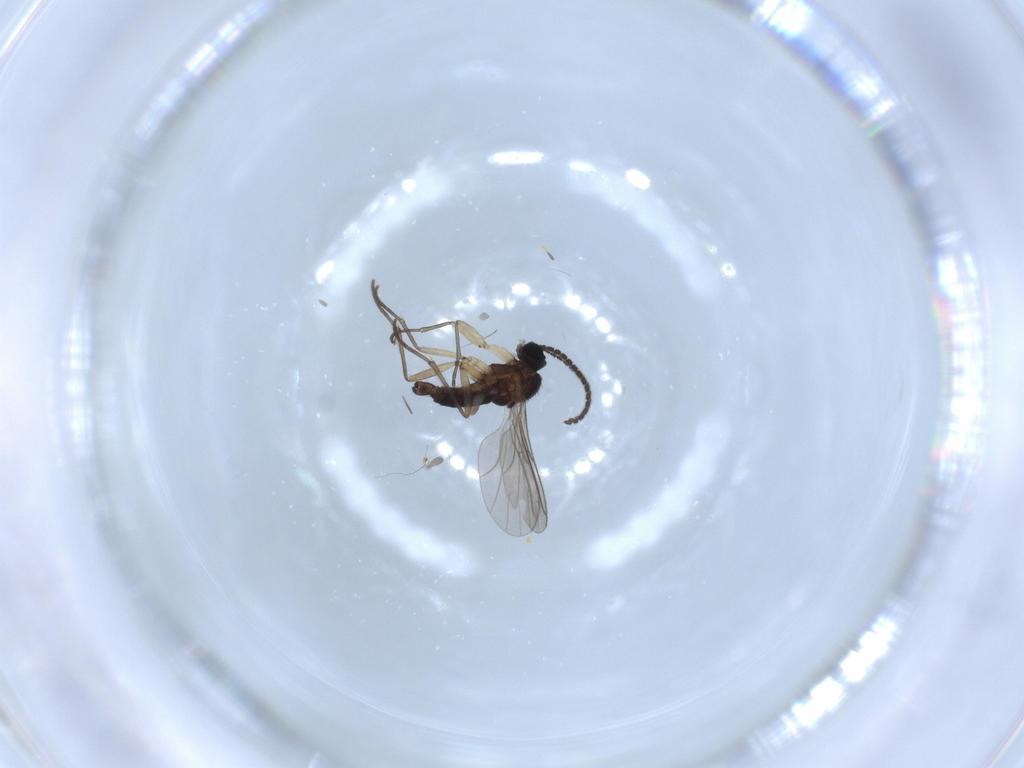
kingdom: Animalia
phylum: Arthropoda
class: Insecta
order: Diptera
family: Sciaridae
